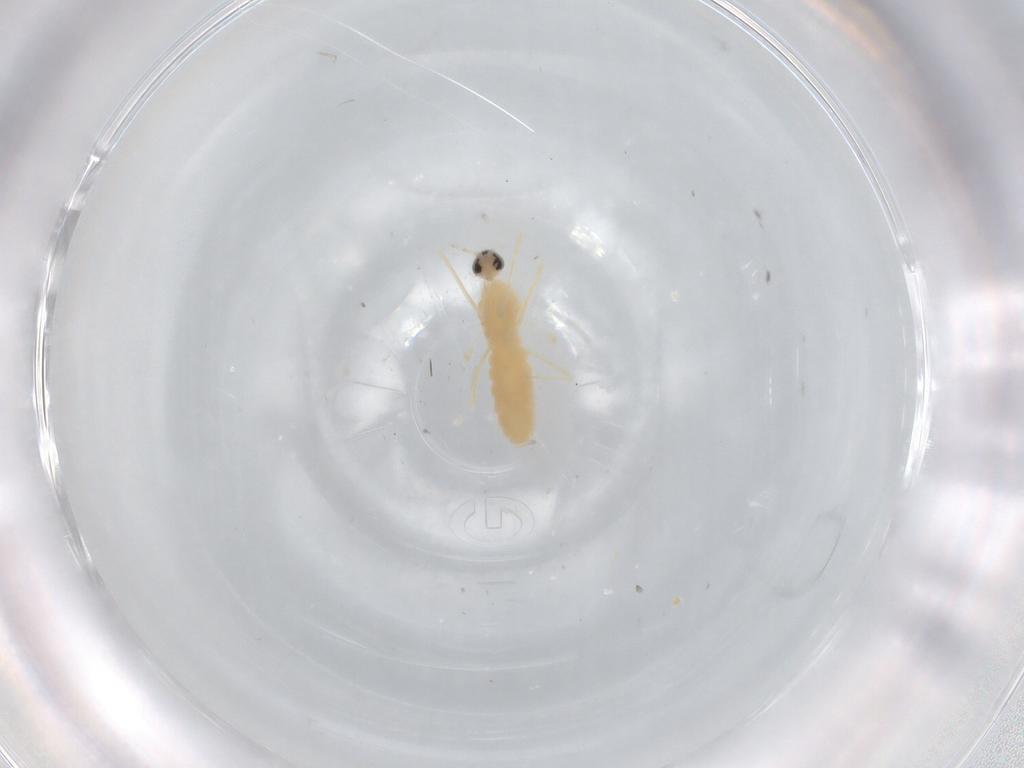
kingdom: Animalia
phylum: Arthropoda
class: Insecta
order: Diptera
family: Cecidomyiidae
